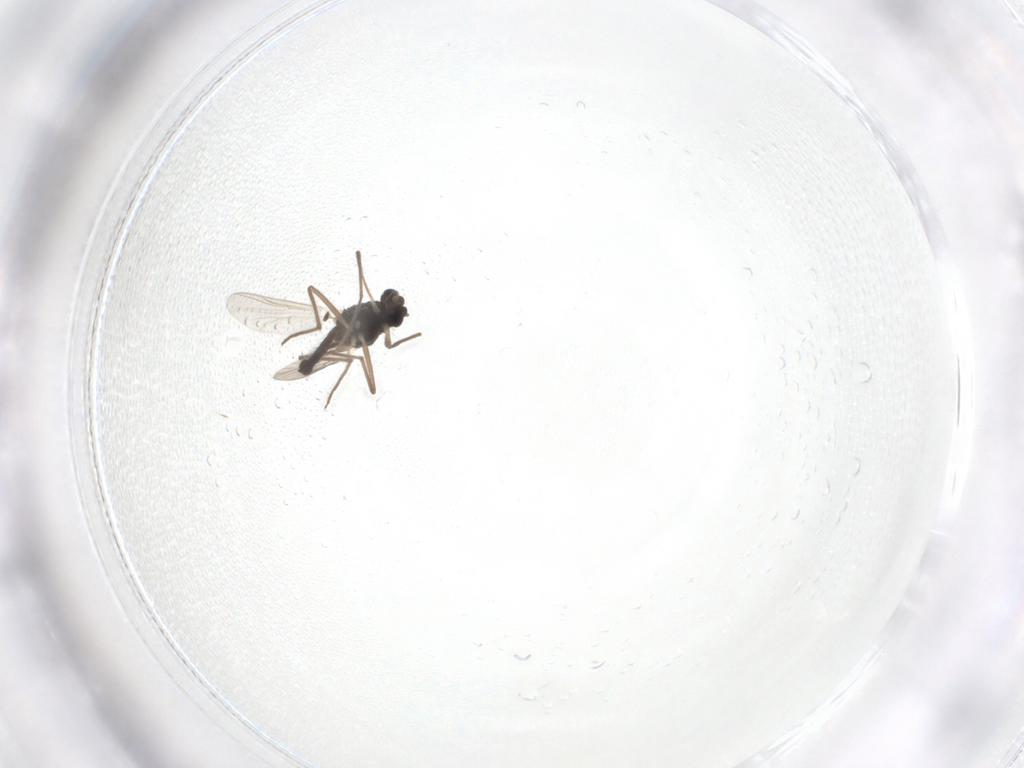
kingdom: Animalia
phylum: Arthropoda
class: Insecta
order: Diptera
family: Chironomidae
